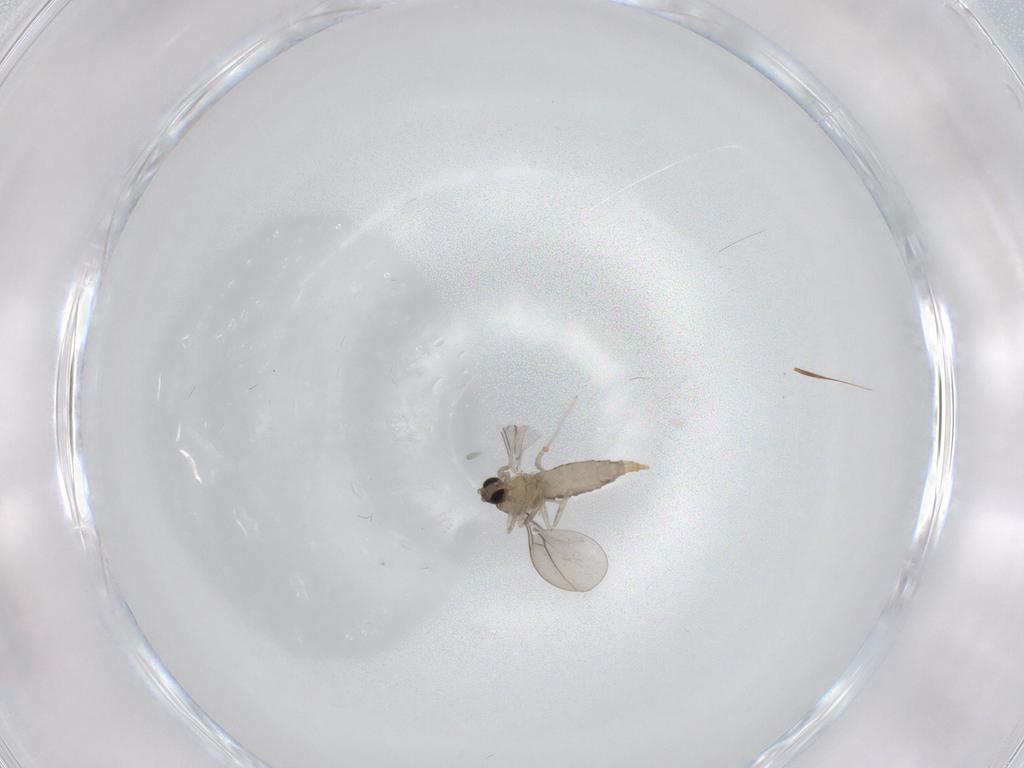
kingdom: Animalia
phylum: Arthropoda
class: Insecta
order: Diptera
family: Cecidomyiidae
